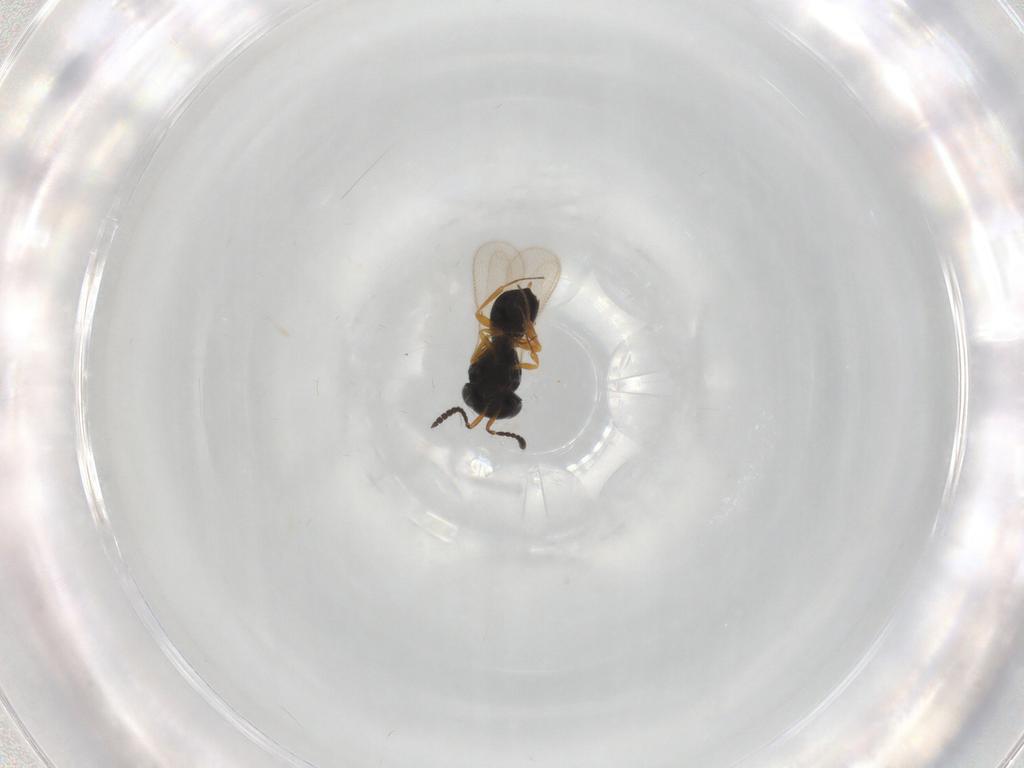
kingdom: Animalia
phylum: Arthropoda
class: Insecta
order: Hymenoptera
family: Scelionidae
